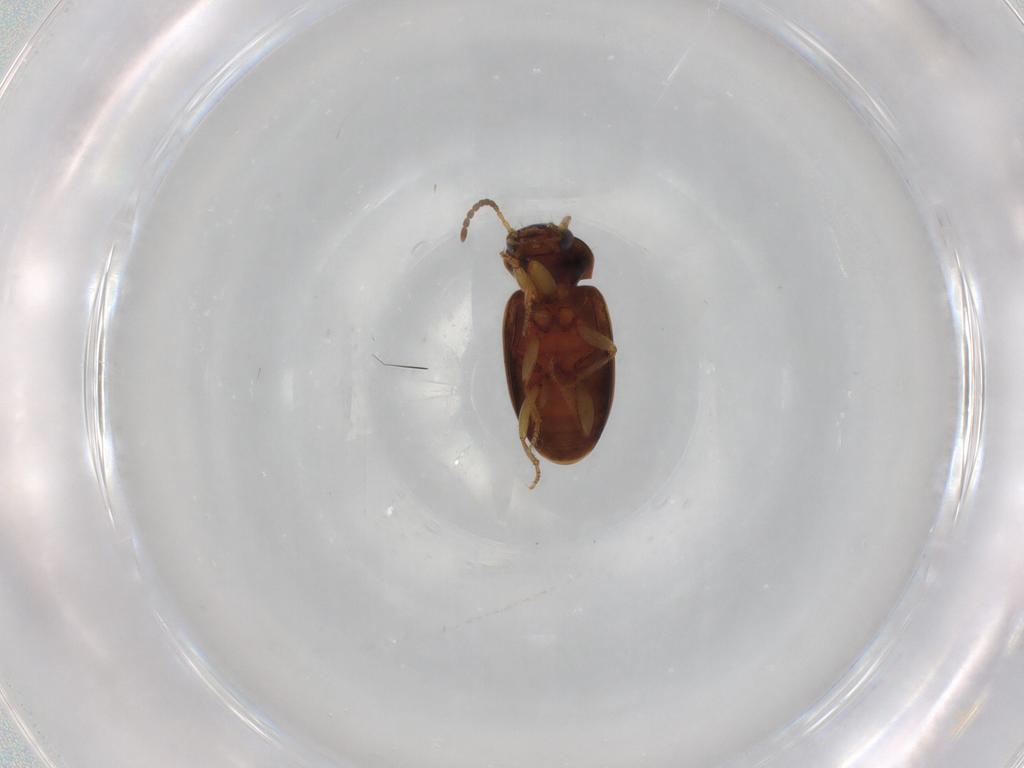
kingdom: Animalia
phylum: Arthropoda
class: Insecta
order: Coleoptera
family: Carabidae
